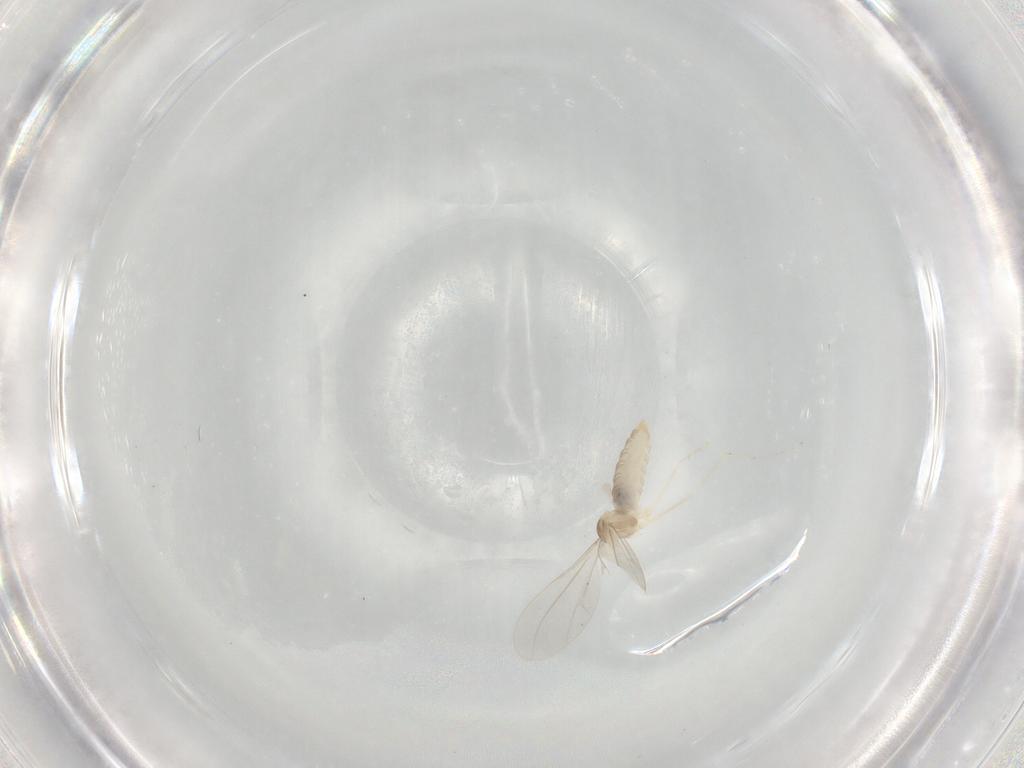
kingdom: Animalia
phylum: Arthropoda
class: Insecta
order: Diptera
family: Cecidomyiidae
